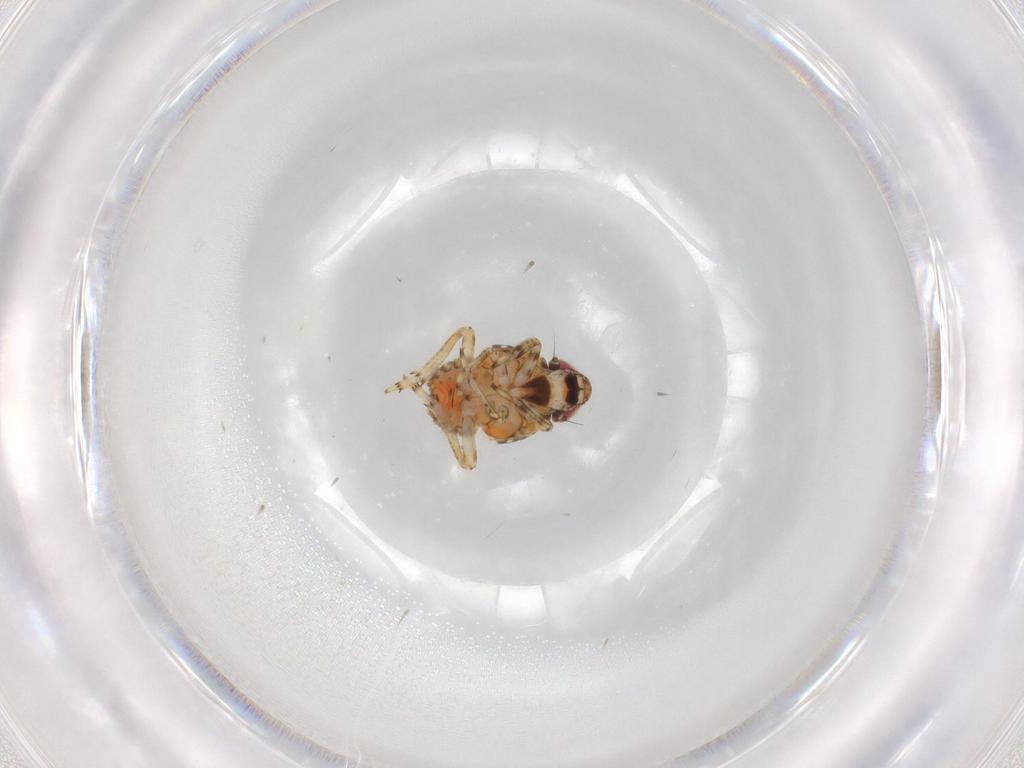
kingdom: Animalia
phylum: Arthropoda
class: Insecta
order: Hemiptera
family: Issidae
